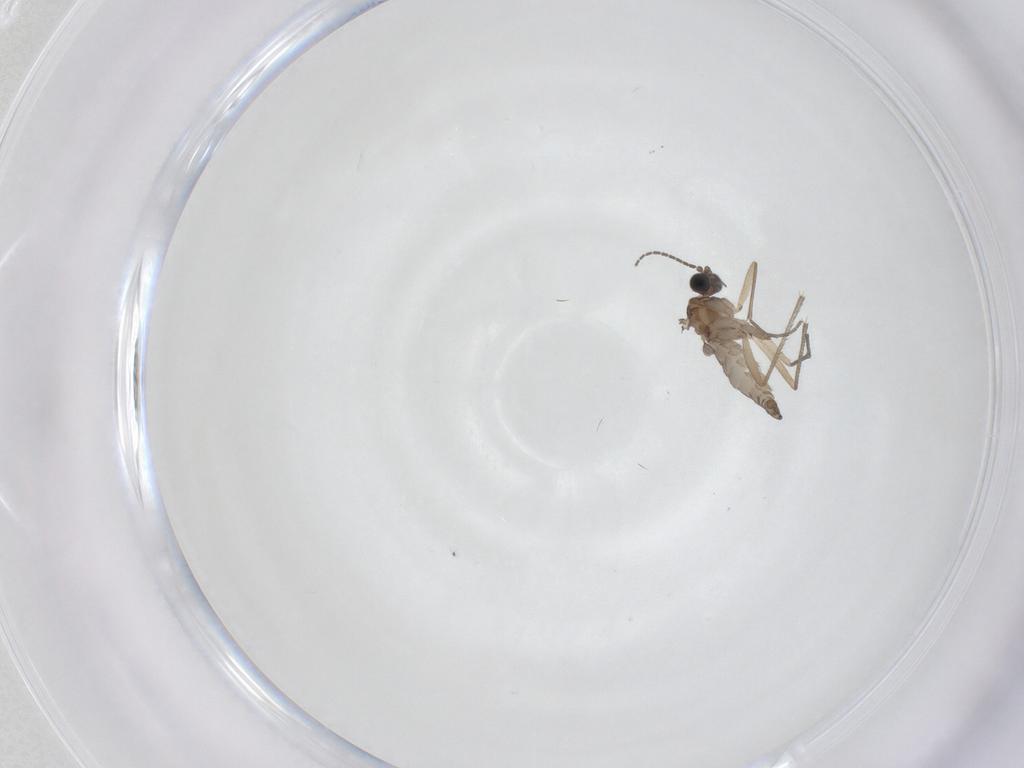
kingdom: Animalia
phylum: Arthropoda
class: Insecta
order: Diptera
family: Sciaridae
